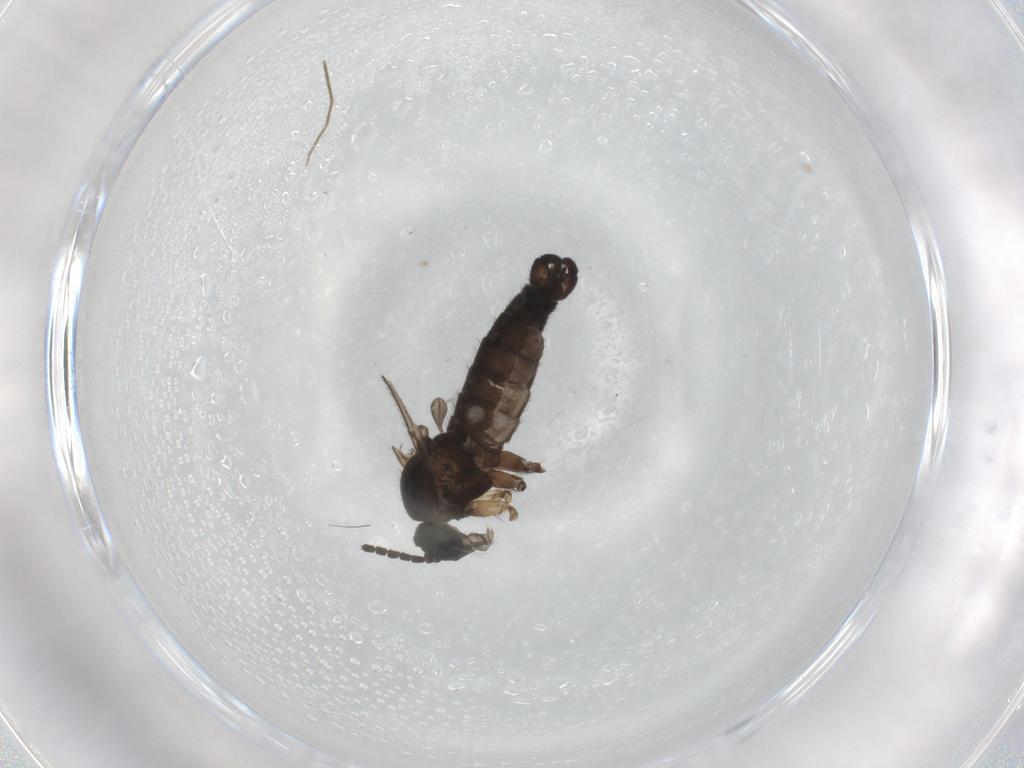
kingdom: Animalia
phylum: Arthropoda
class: Insecta
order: Diptera
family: Sciaridae
